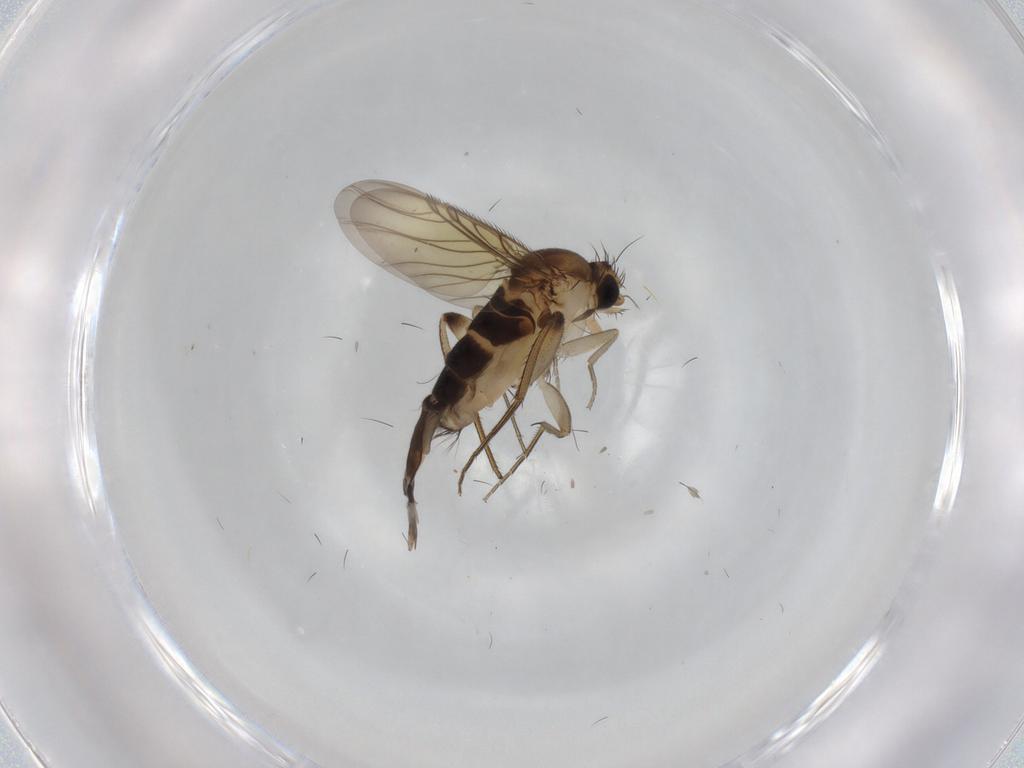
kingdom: Animalia
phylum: Arthropoda
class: Insecta
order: Diptera
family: Phoridae
